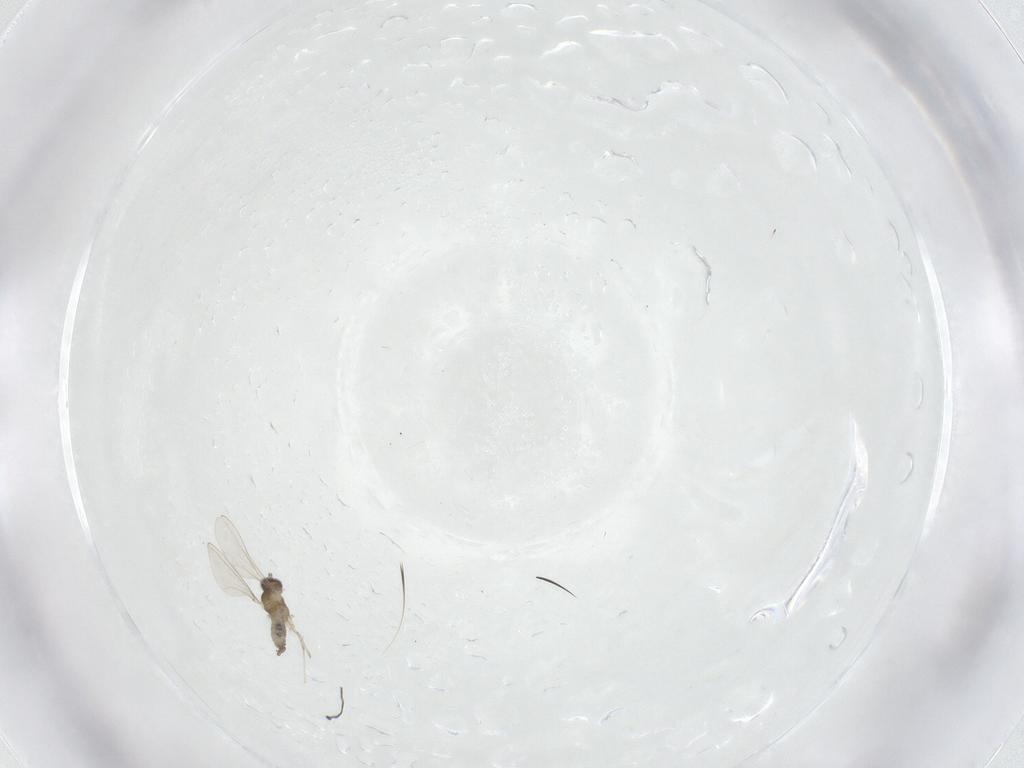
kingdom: Animalia
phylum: Arthropoda
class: Insecta
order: Diptera
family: Cecidomyiidae
